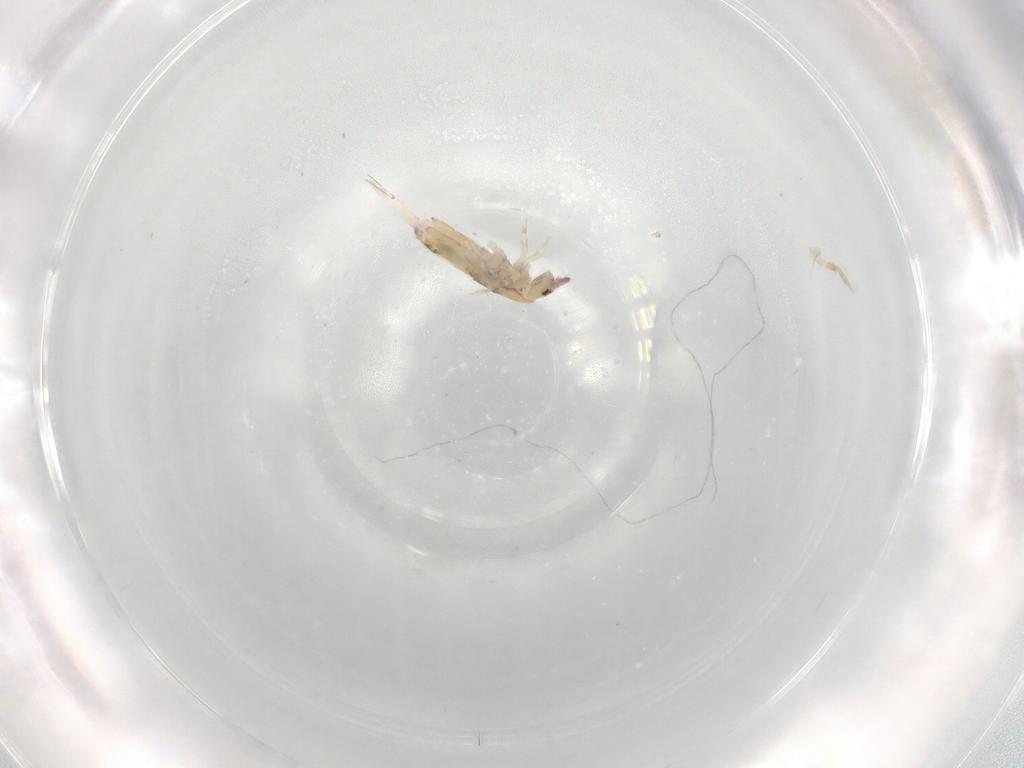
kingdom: Animalia
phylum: Arthropoda
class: Collembola
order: Entomobryomorpha
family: Entomobryidae
